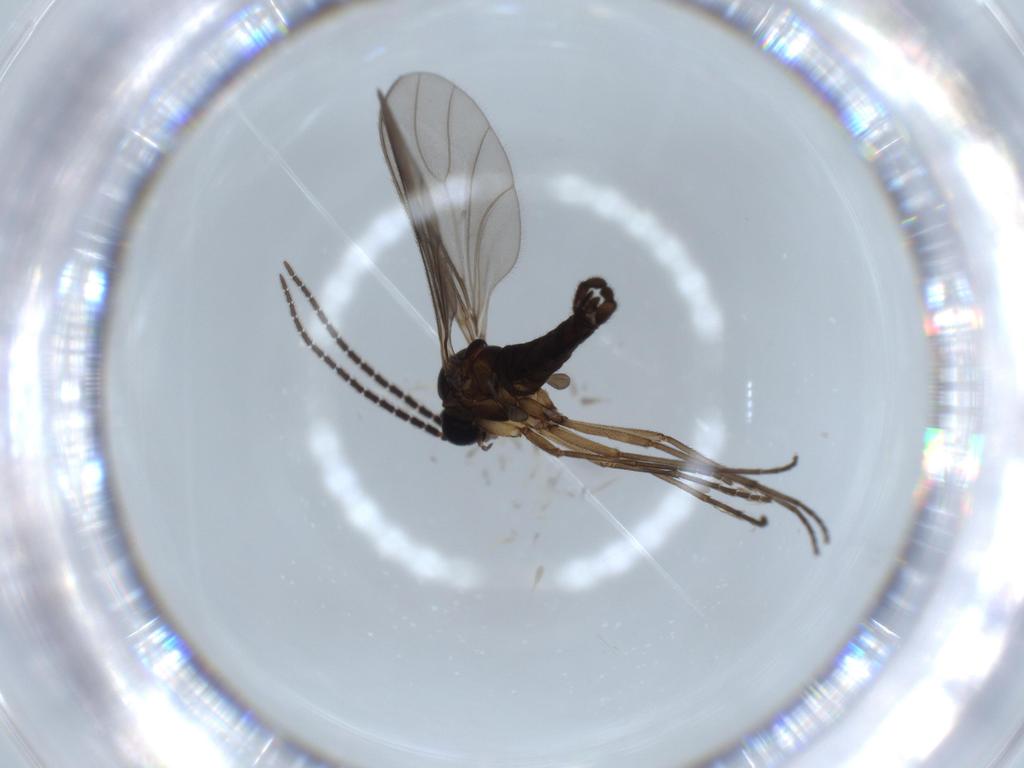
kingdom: Animalia
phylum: Arthropoda
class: Insecta
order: Diptera
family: Sciaridae
